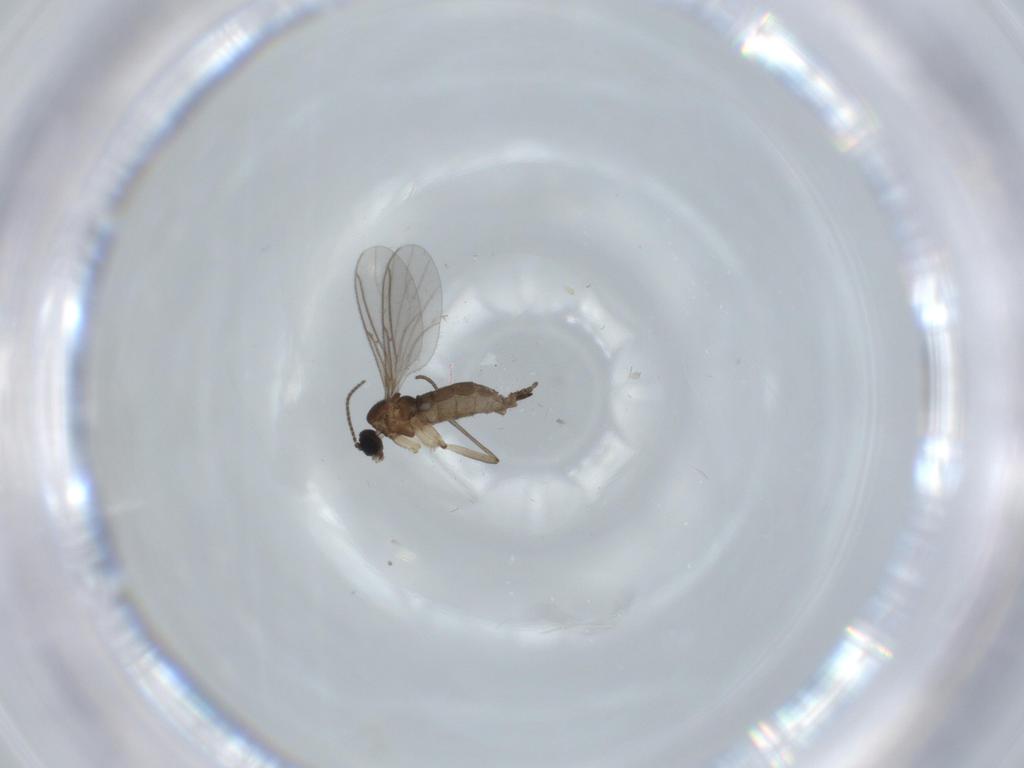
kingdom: Animalia
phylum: Arthropoda
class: Insecta
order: Diptera
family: Sciaridae
